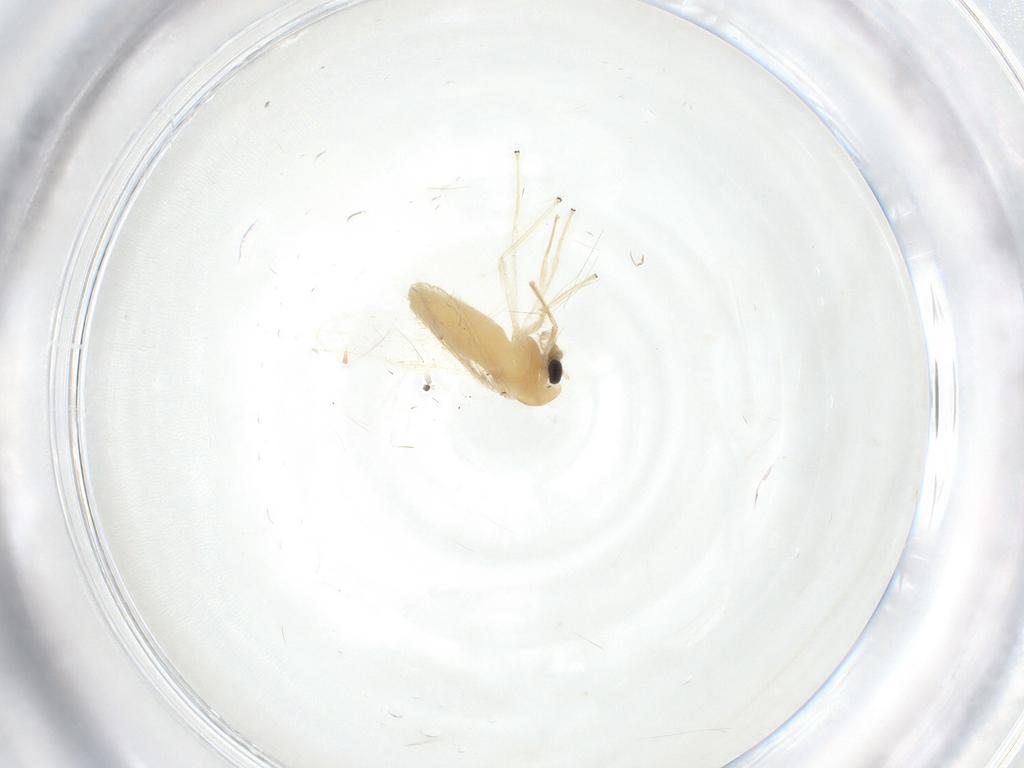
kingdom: Animalia
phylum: Arthropoda
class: Insecta
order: Diptera
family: Chironomidae
